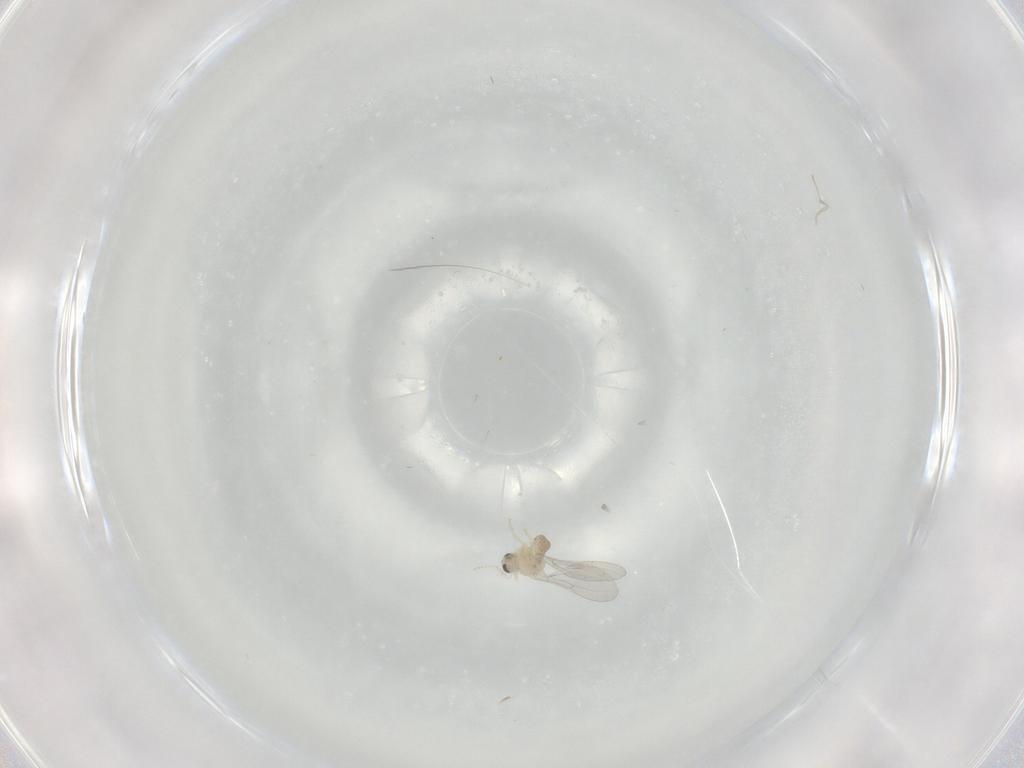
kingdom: Animalia
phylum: Arthropoda
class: Insecta
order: Diptera
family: Cecidomyiidae
